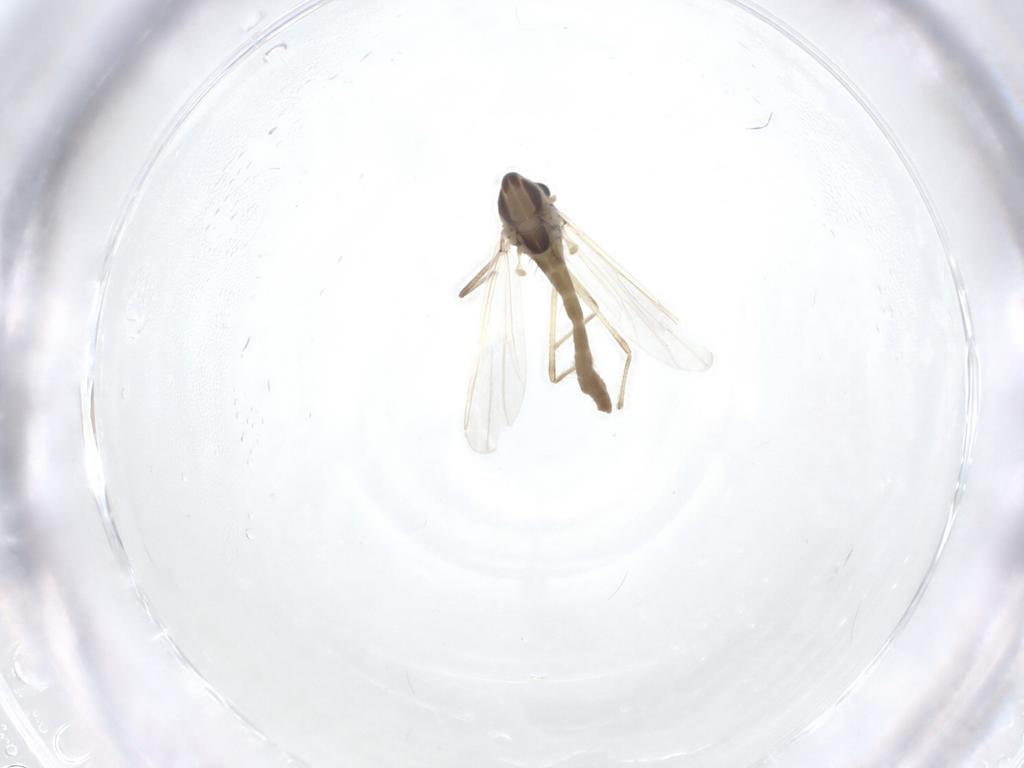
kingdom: Animalia
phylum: Arthropoda
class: Insecta
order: Diptera
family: Chironomidae
